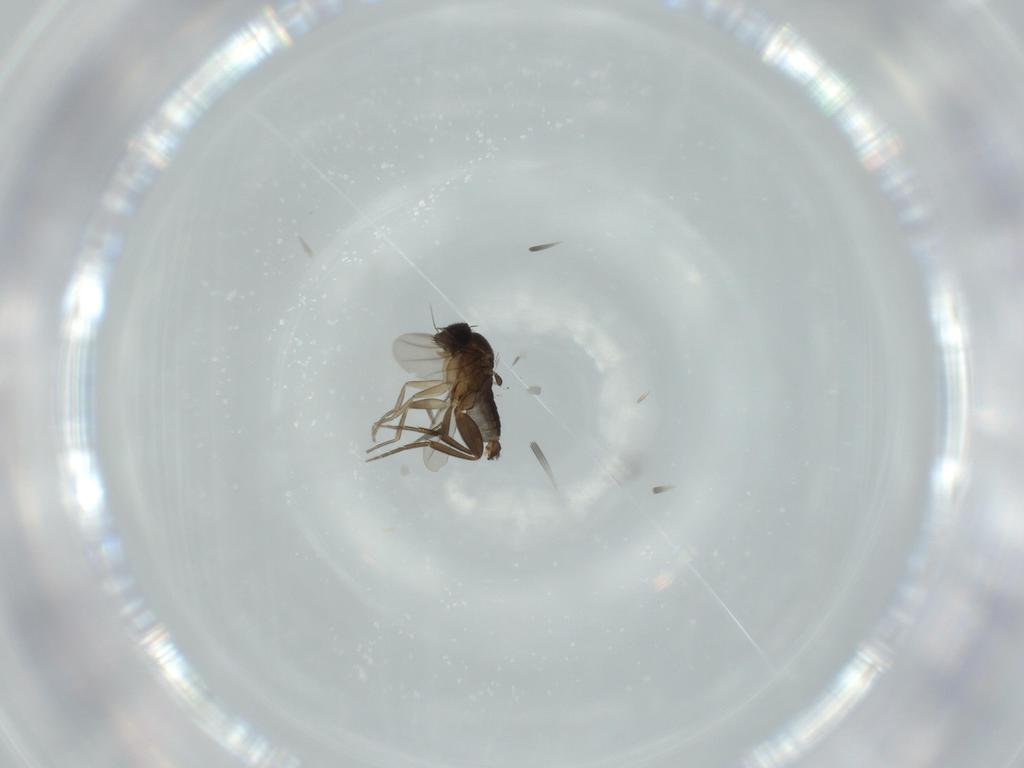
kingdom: Animalia
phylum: Arthropoda
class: Insecta
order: Diptera
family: Phoridae
